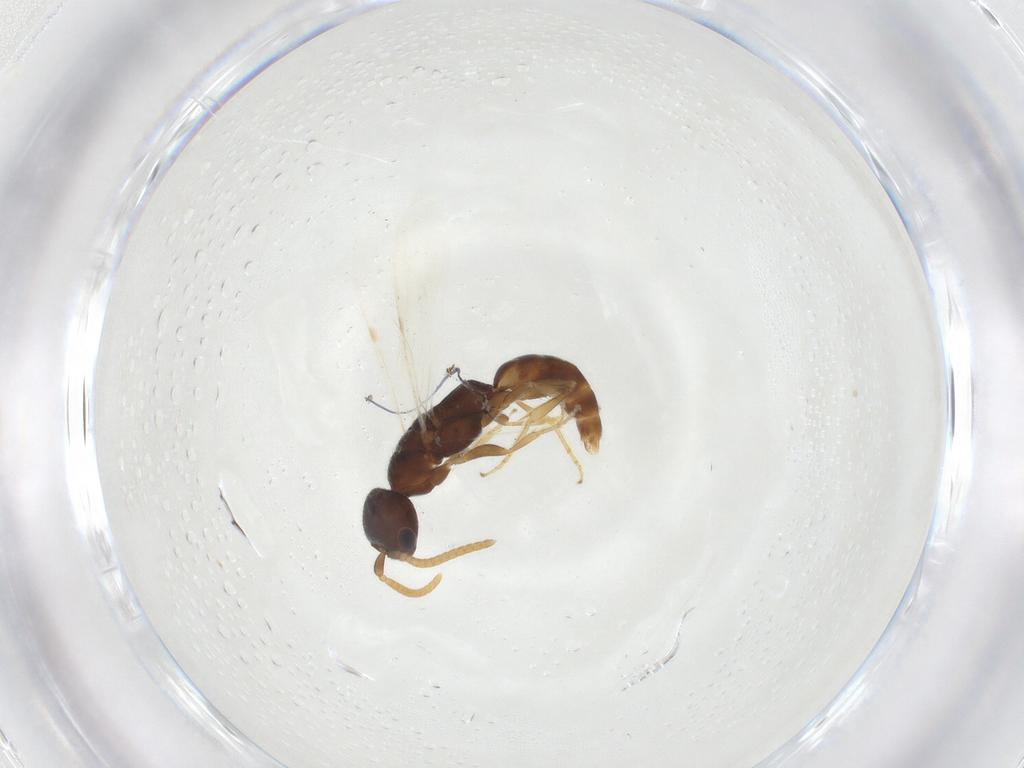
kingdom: Animalia
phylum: Arthropoda
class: Insecta
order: Hymenoptera
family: Bethylidae
